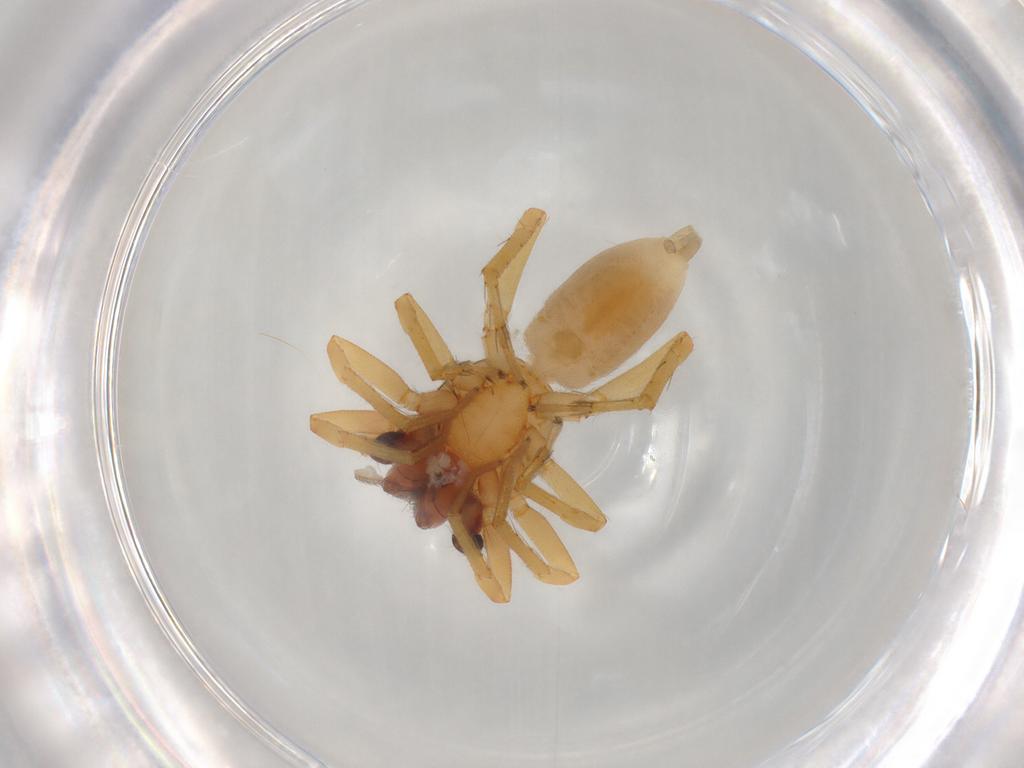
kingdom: Animalia
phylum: Arthropoda
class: Arachnida
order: Araneae
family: Clubionidae
